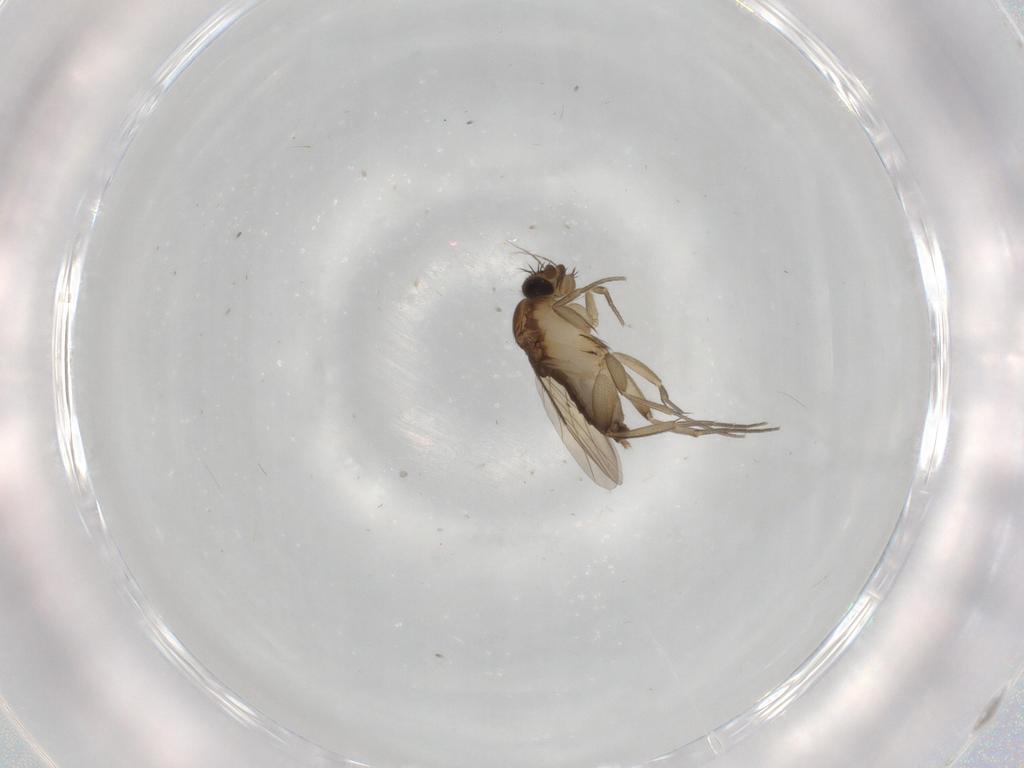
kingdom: Animalia
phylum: Arthropoda
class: Insecta
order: Diptera
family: Phoridae
